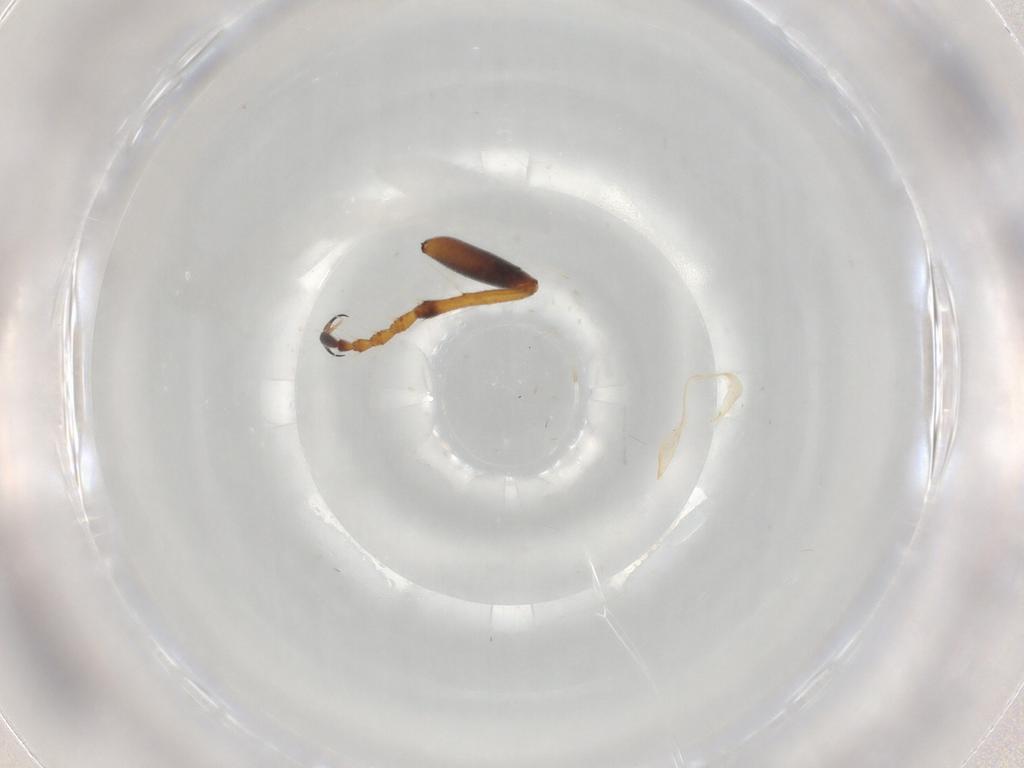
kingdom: Animalia
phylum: Arthropoda
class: Insecta
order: Diptera
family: Asilidae
